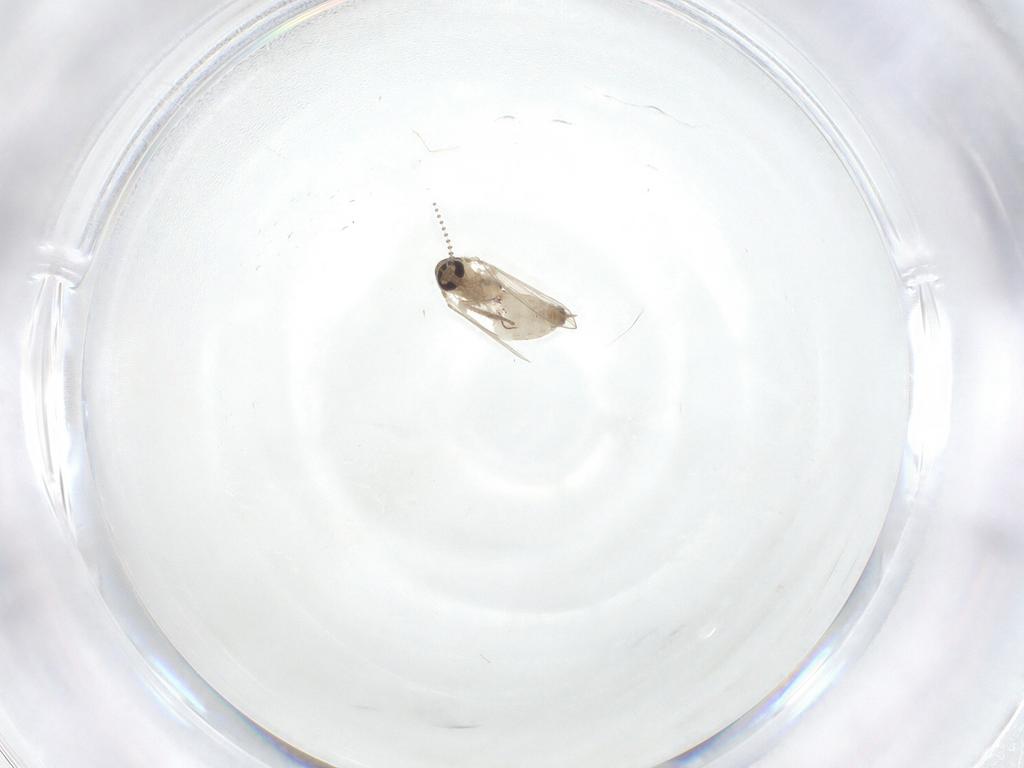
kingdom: Animalia
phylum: Arthropoda
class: Insecta
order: Diptera
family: Psychodidae
